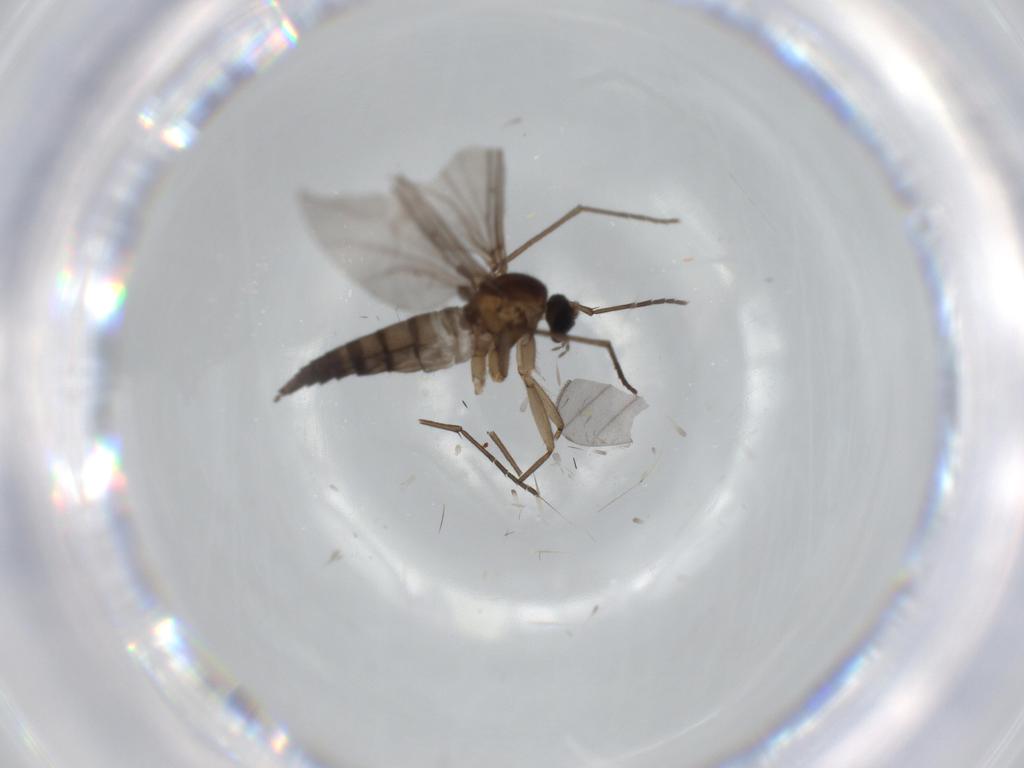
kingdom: Animalia
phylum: Arthropoda
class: Insecta
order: Diptera
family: Sciaridae
